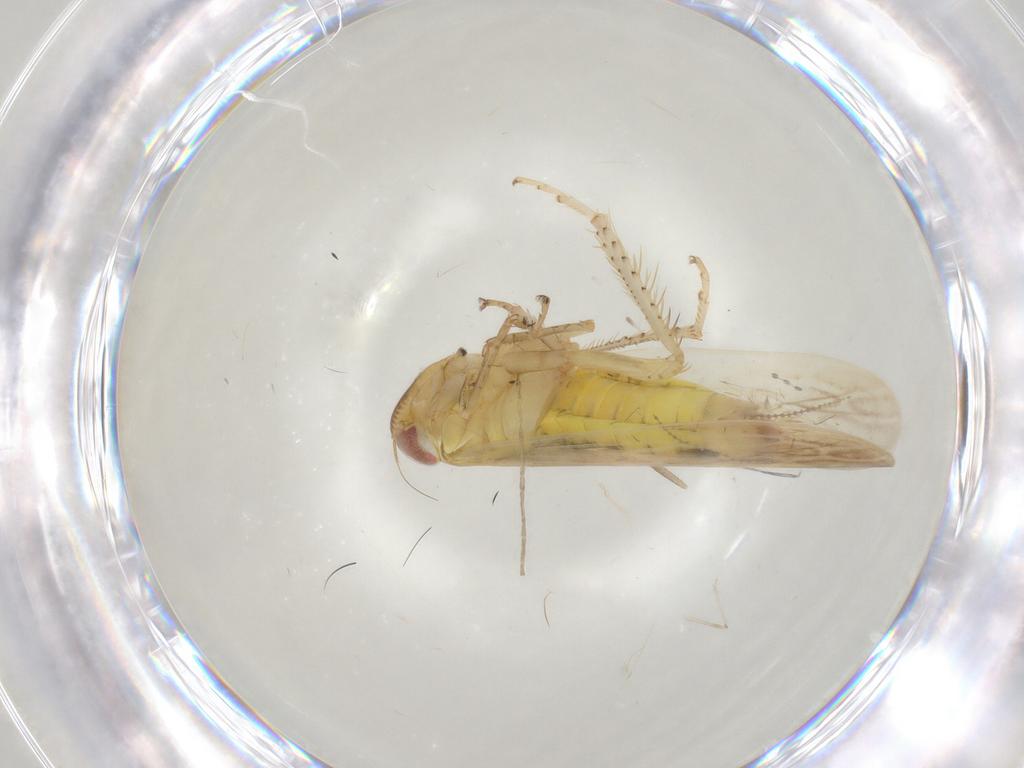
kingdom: Animalia
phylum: Arthropoda
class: Insecta
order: Hemiptera
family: Cicadellidae
